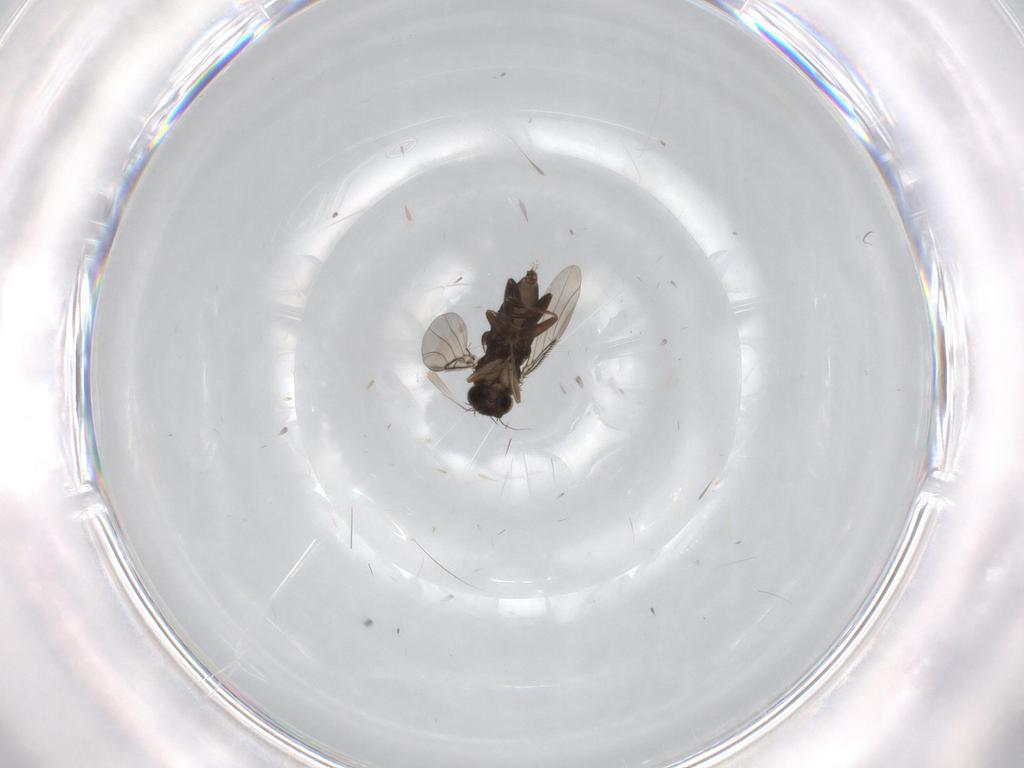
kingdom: Animalia
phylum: Arthropoda
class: Insecta
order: Diptera
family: Phoridae
